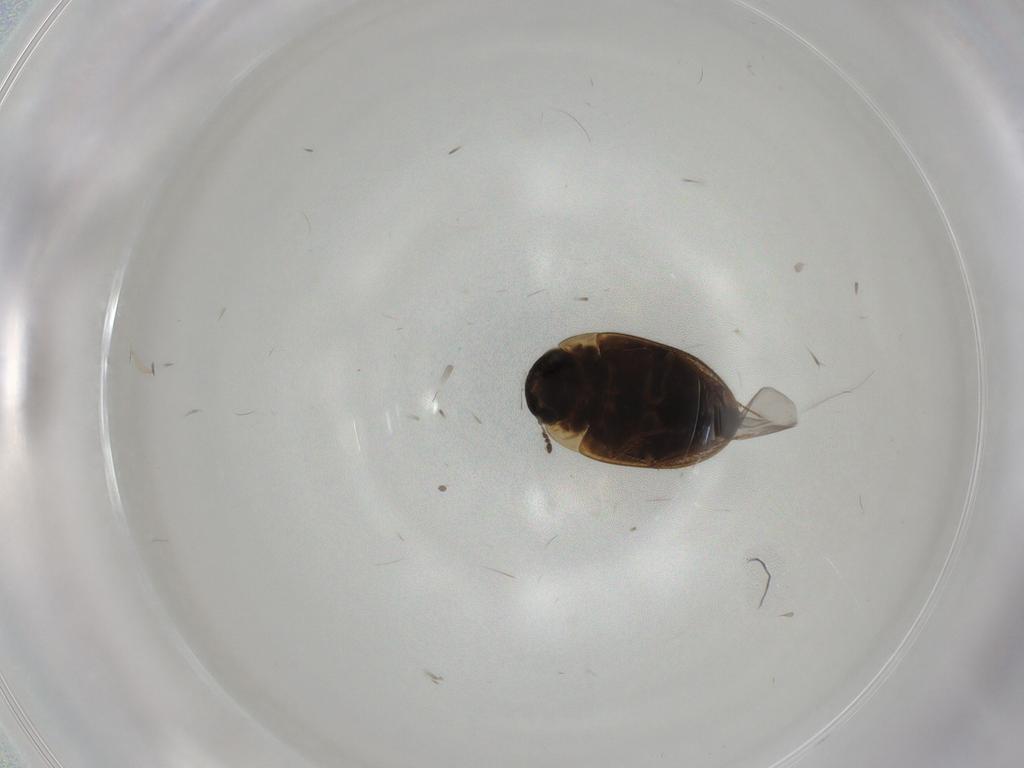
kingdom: Animalia
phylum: Arthropoda
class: Insecta
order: Coleoptera
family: Hydrophilidae
